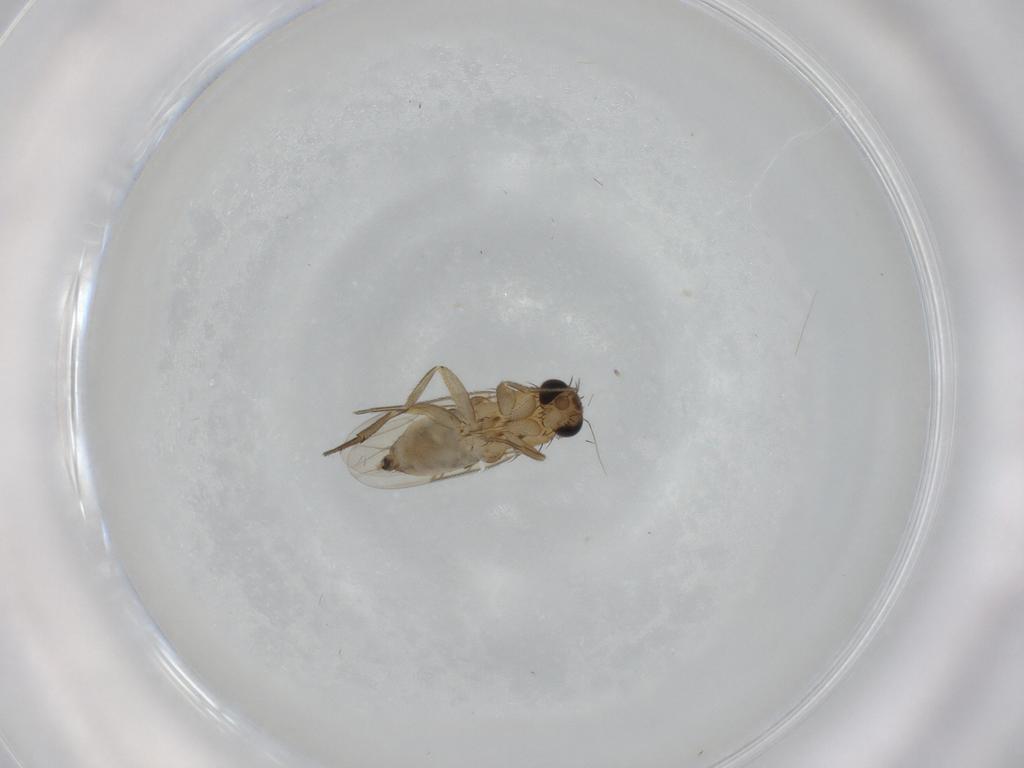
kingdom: Animalia
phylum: Arthropoda
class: Insecta
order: Diptera
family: Phoridae
